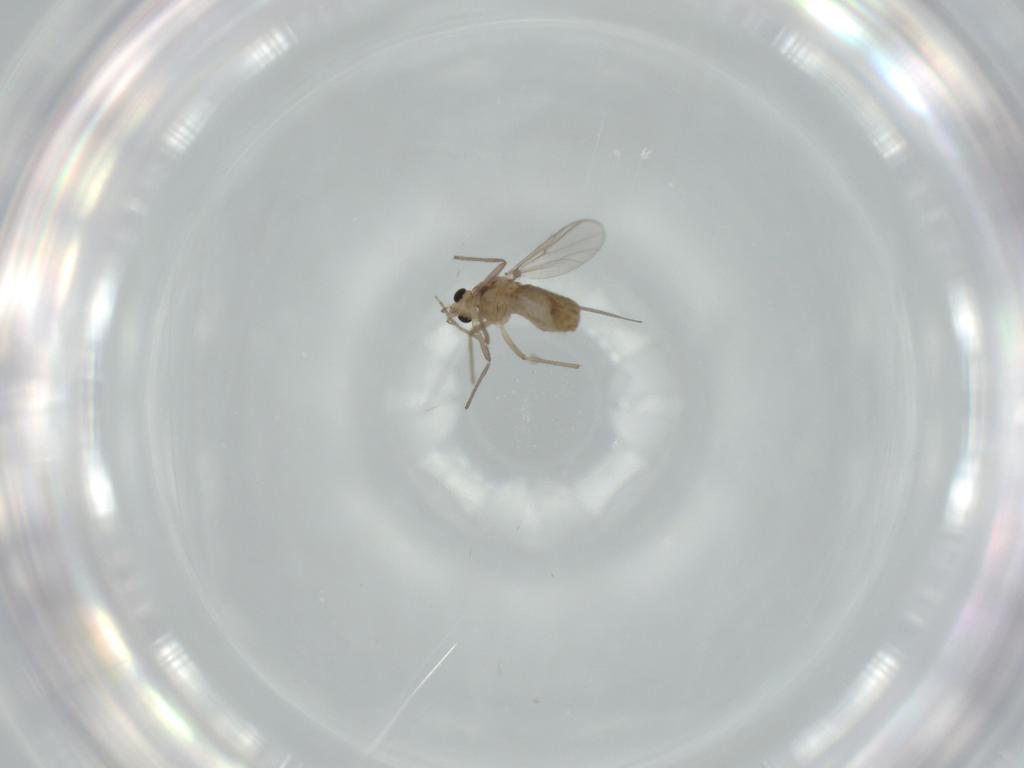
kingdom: Animalia
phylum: Arthropoda
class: Insecta
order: Diptera
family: Chironomidae
